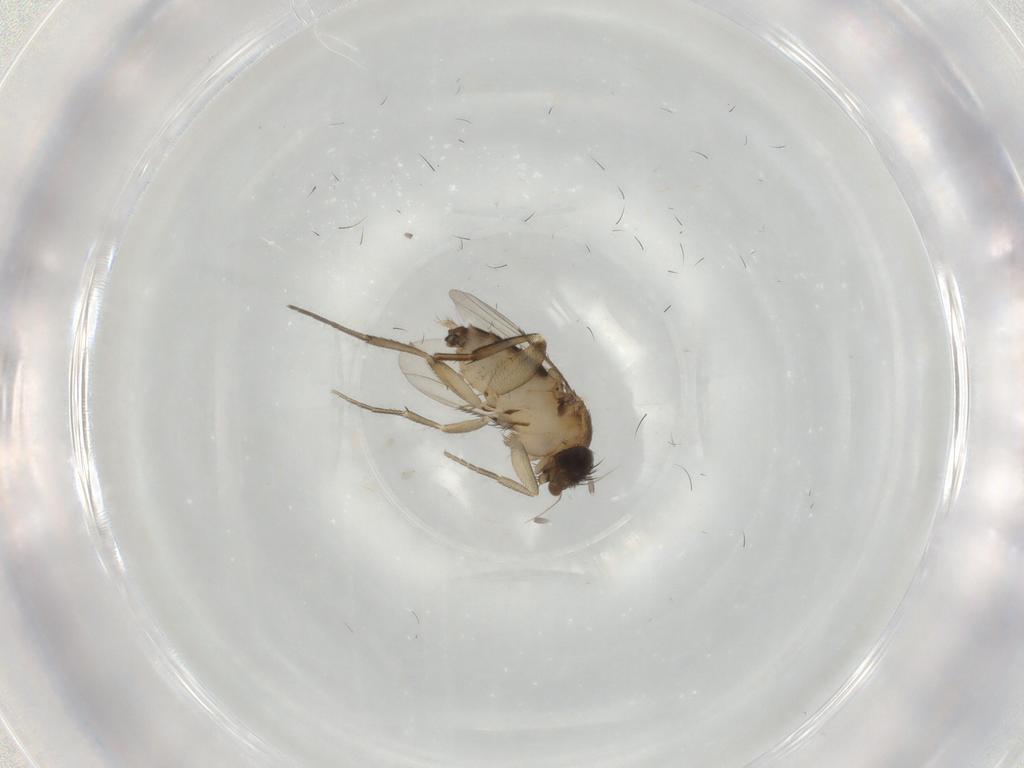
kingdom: Animalia
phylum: Arthropoda
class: Insecta
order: Diptera
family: Phoridae
